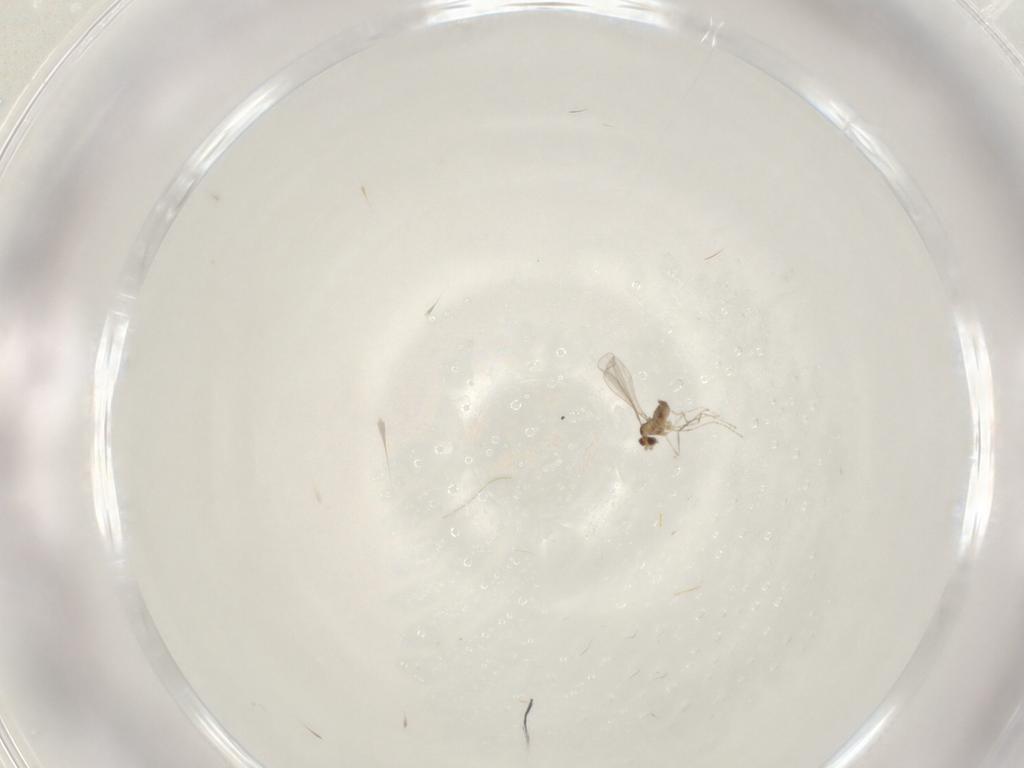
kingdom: Animalia
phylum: Arthropoda
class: Insecta
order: Diptera
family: Cecidomyiidae
